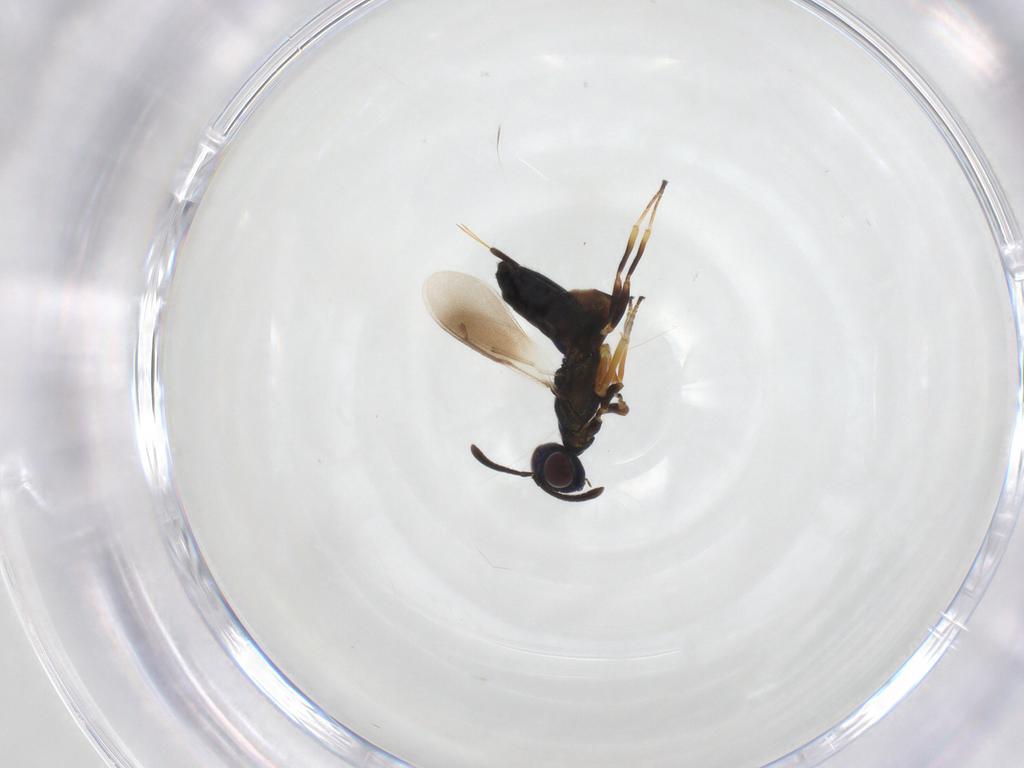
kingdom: Animalia
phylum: Arthropoda
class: Insecta
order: Hymenoptera
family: Eupelmidae
